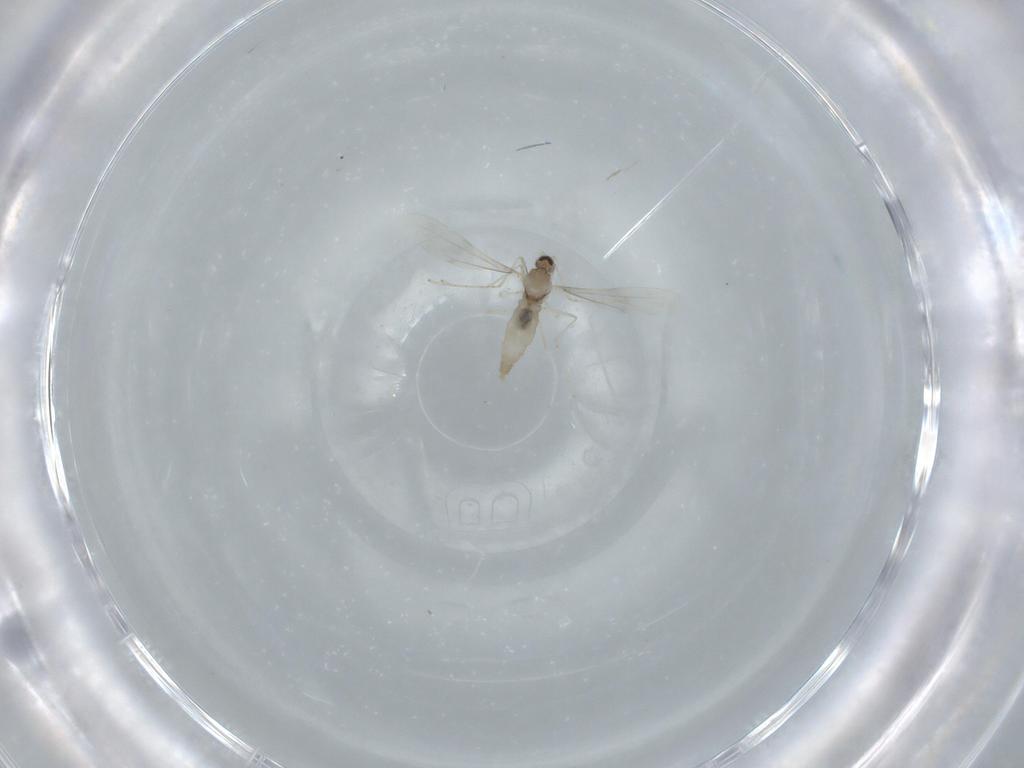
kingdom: Animalia
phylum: Arthropoda
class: Insecta
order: Diptera
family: Cecidomyiidae
